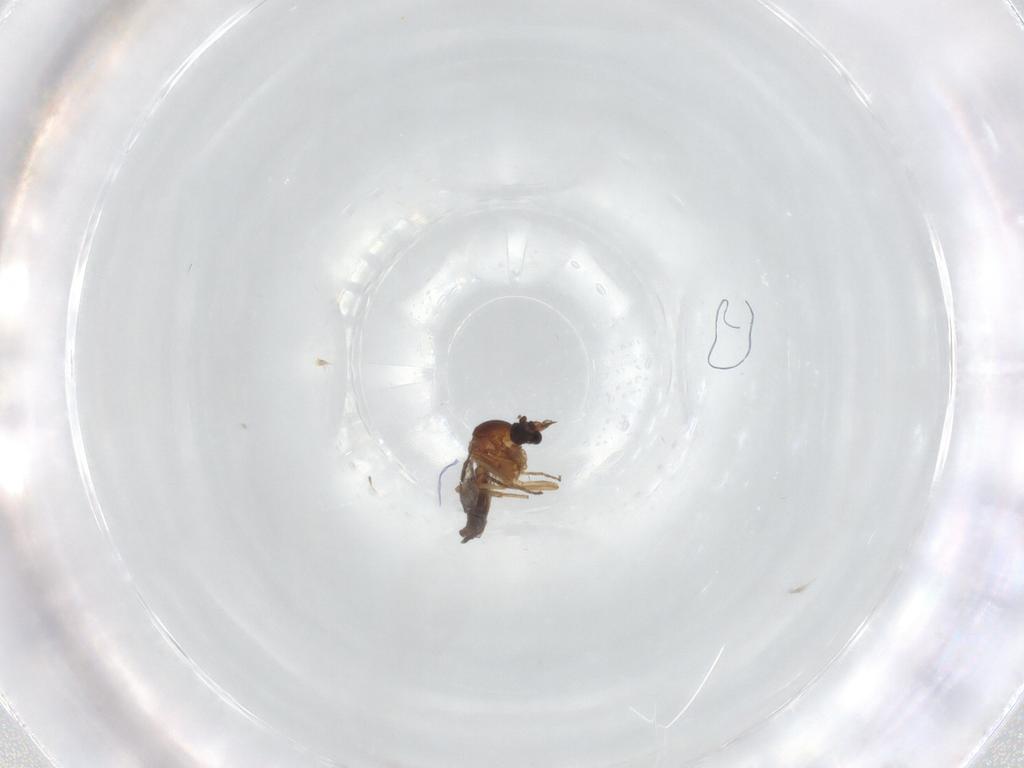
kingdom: Animalia
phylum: Arthropoda
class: Insecta
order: Diptera
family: Ceratopogonidae
